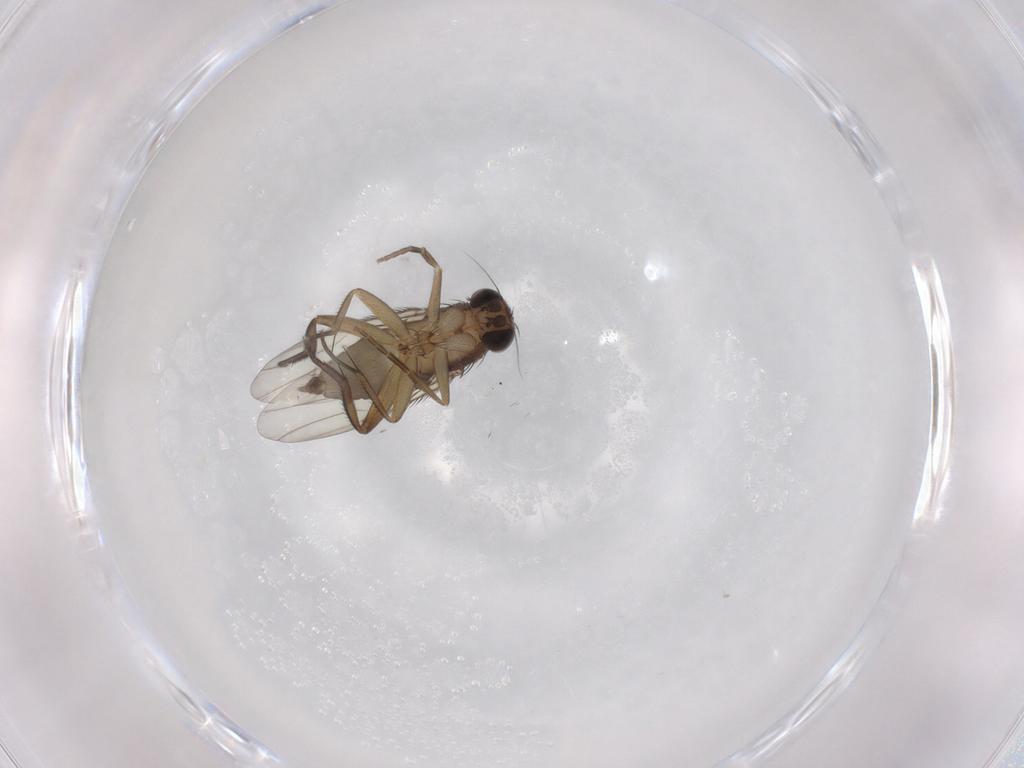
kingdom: Animalia
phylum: Arthropoda
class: Insecta
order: Diptera
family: Phoridae
